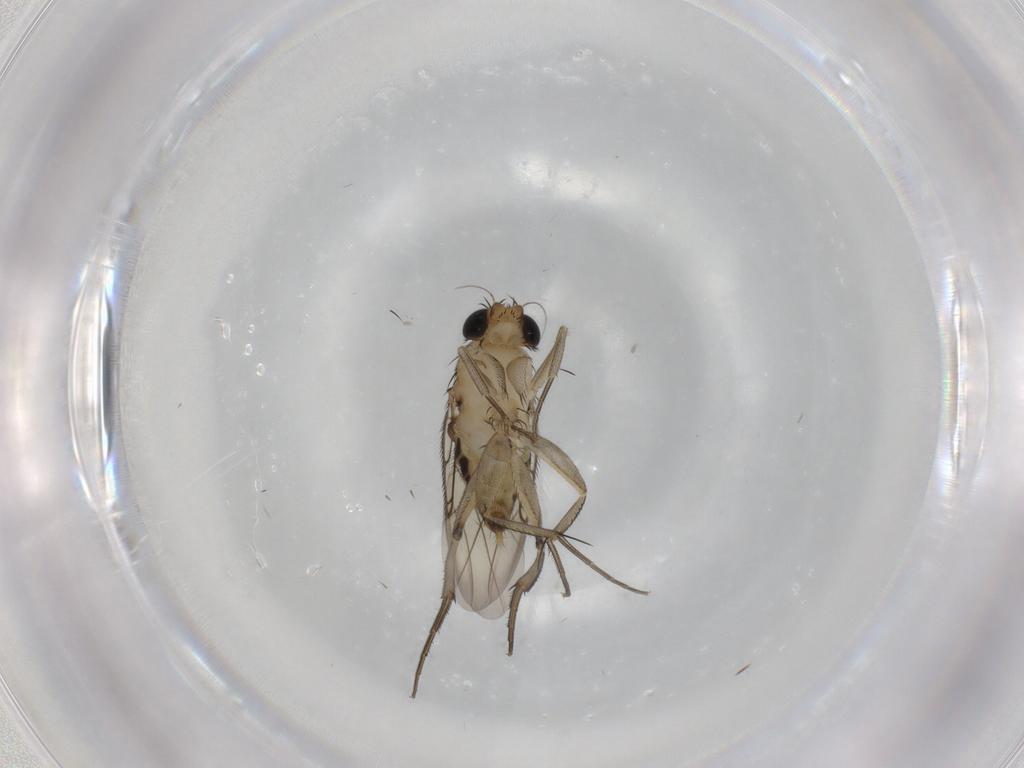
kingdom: Animalia
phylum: Arthropoda
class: Insecta
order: Diptera
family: Phoridae
